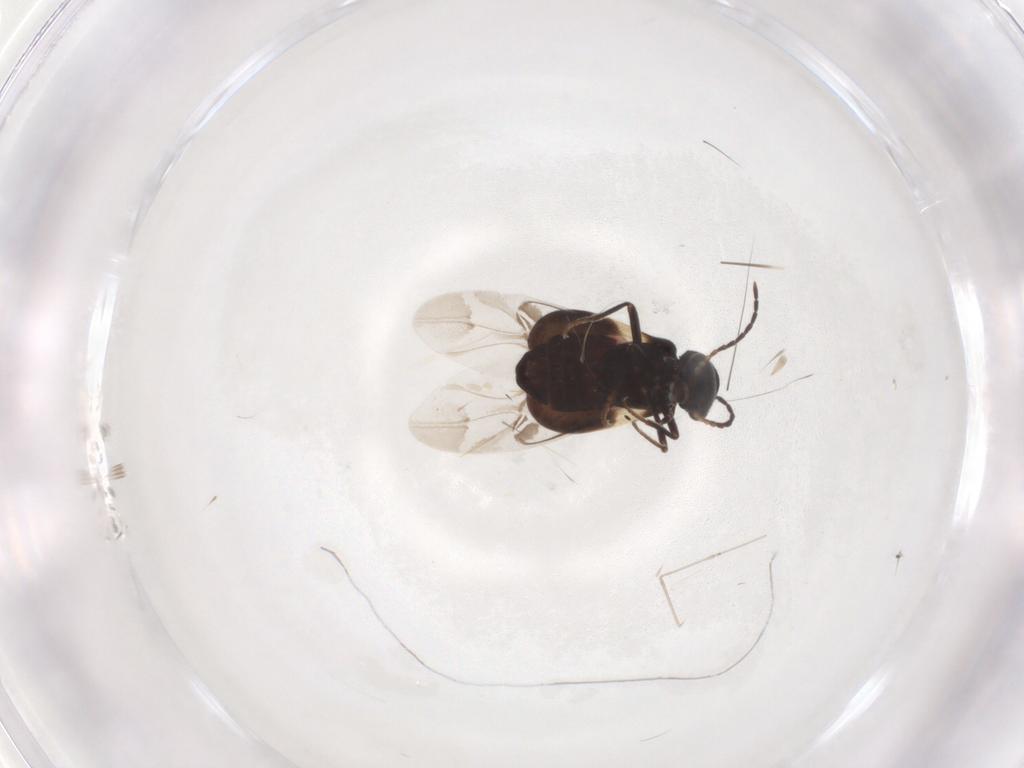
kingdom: Animalia
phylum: Arthropoda
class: Insecta
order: Coleoptera
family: Melyridae
